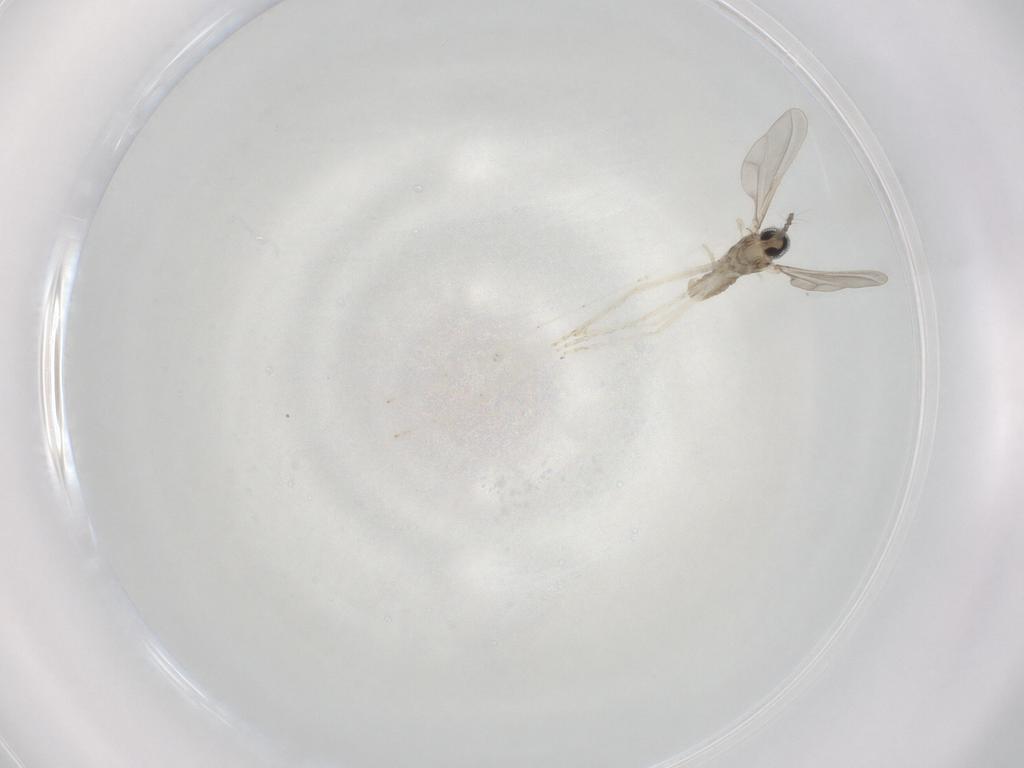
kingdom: Animalia
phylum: Arthropoda
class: Insecta
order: Diptera
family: Cecidomyiidae
